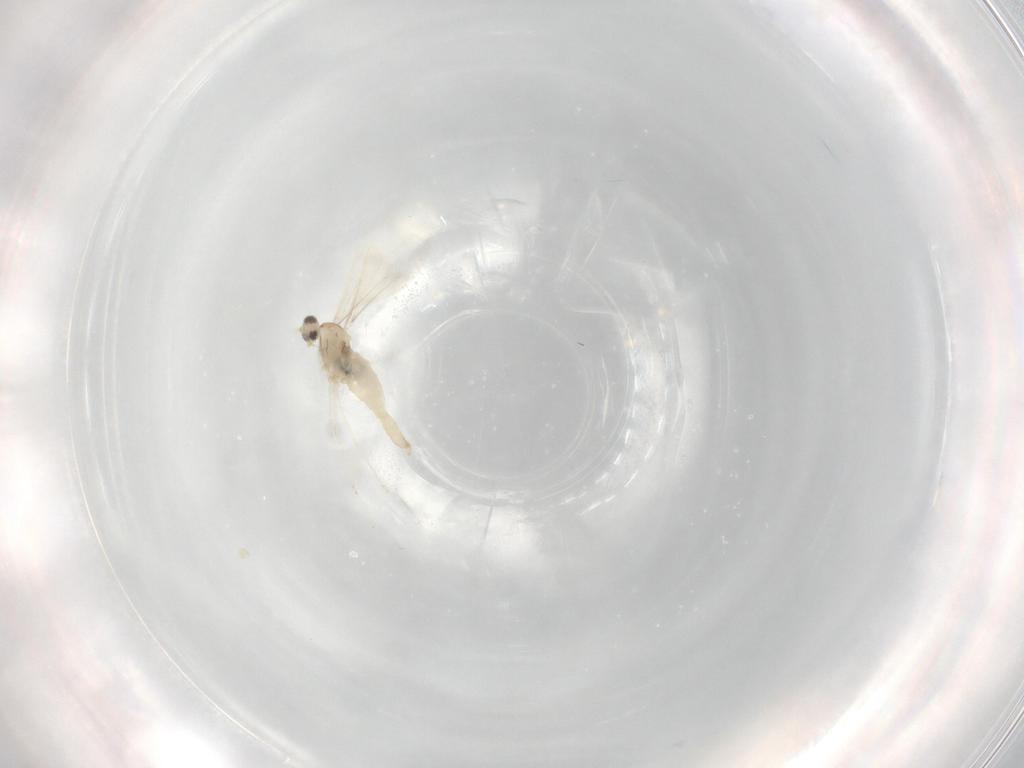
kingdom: Animalia
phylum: Arthropoda
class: Insecta
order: Diptera
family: Cecidomyiidae
